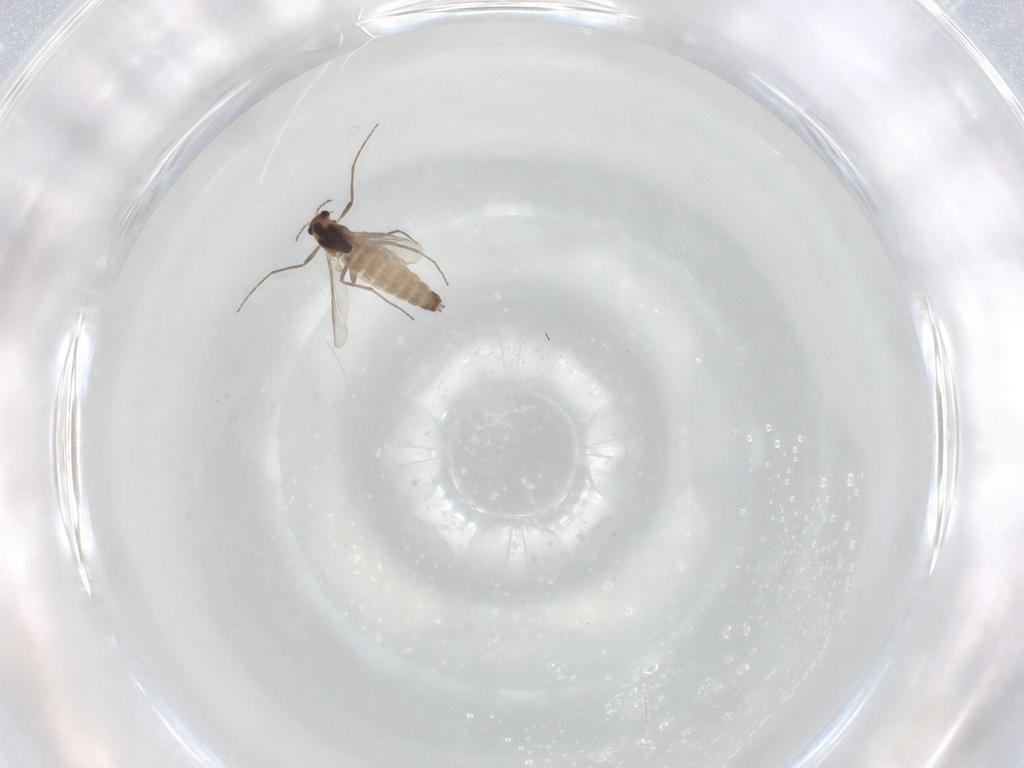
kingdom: Animalia
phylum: Arthropoda
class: Insecta
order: Diptera
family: Hybotidae
